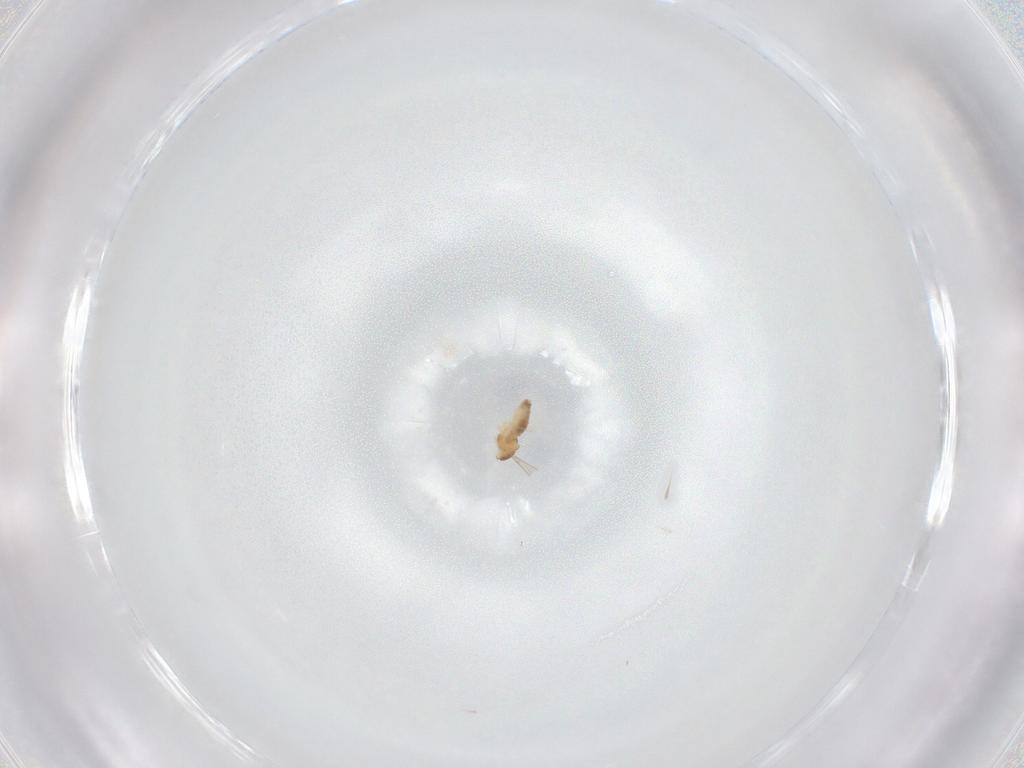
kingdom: Animalia
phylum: Arthropoda
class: Insecta
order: Diptera
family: Cecidomyiidae
